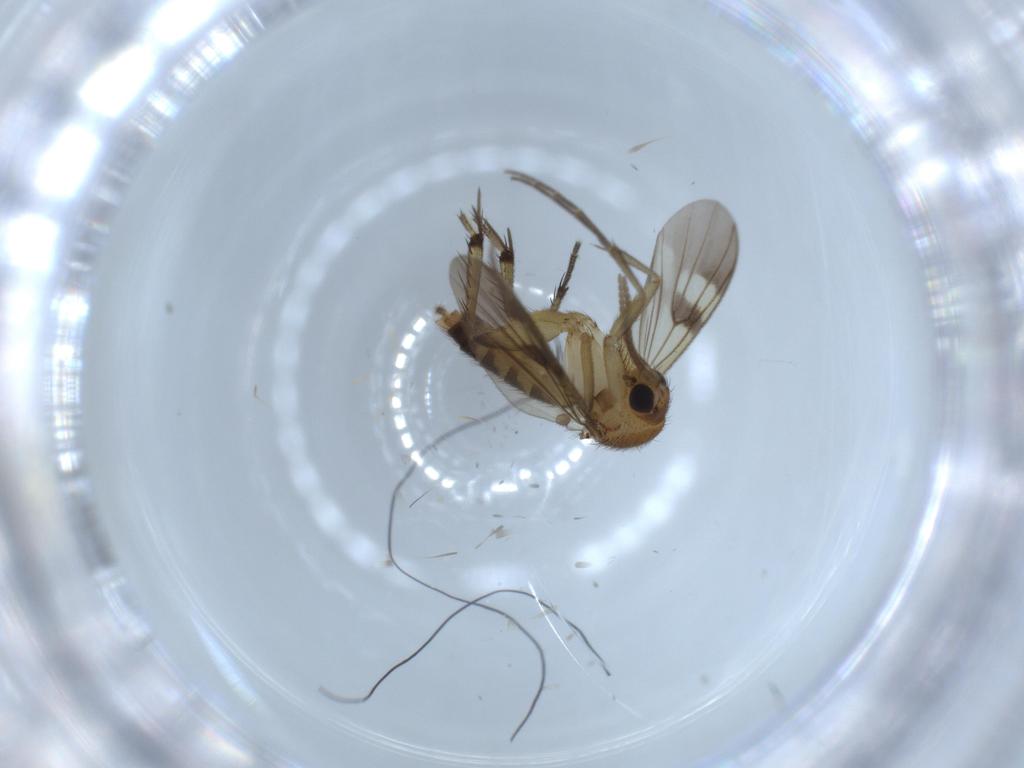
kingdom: Animalia
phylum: Arthropoda
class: Insecta
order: Diptera
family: Mycetophilidae
